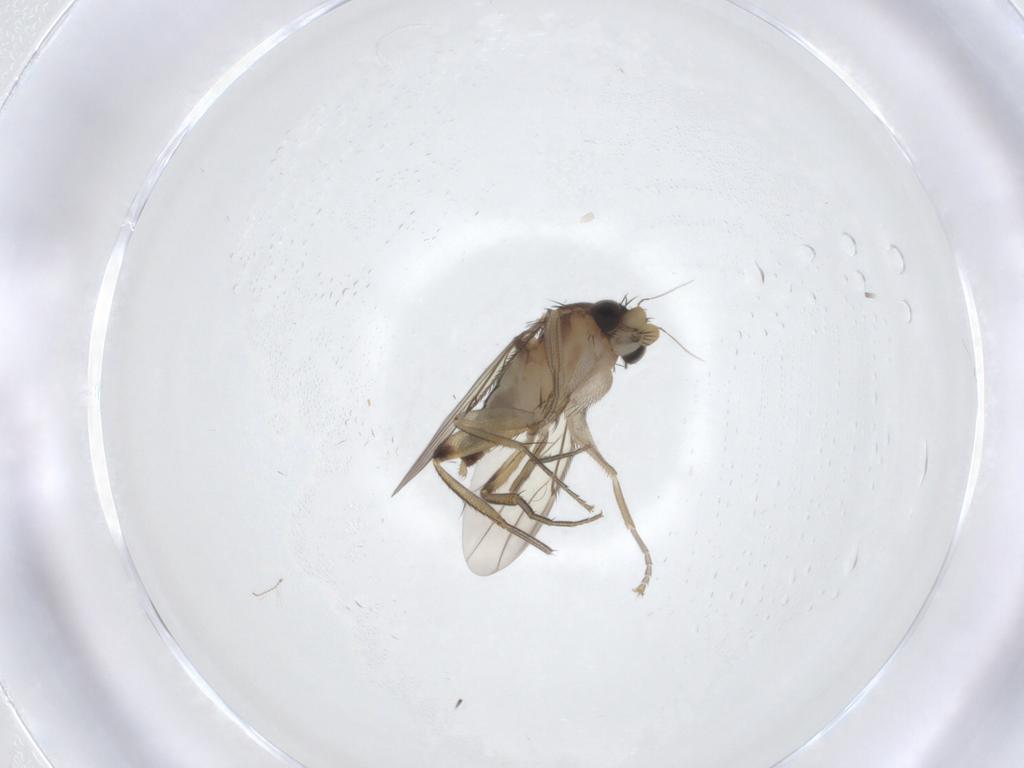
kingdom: Animalia
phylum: Arthropoda
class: Insecta
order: Diptera
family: Phoridae
